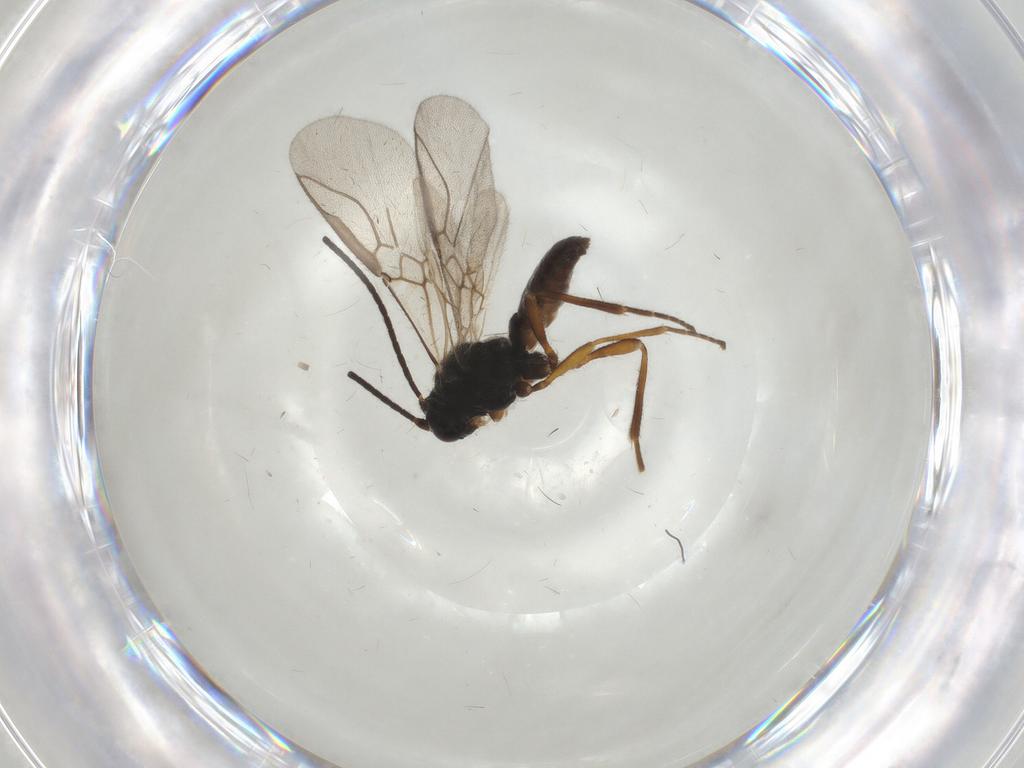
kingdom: Animalia
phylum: Arthropoda
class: Insecta
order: Hymenoptera
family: Braconidae
